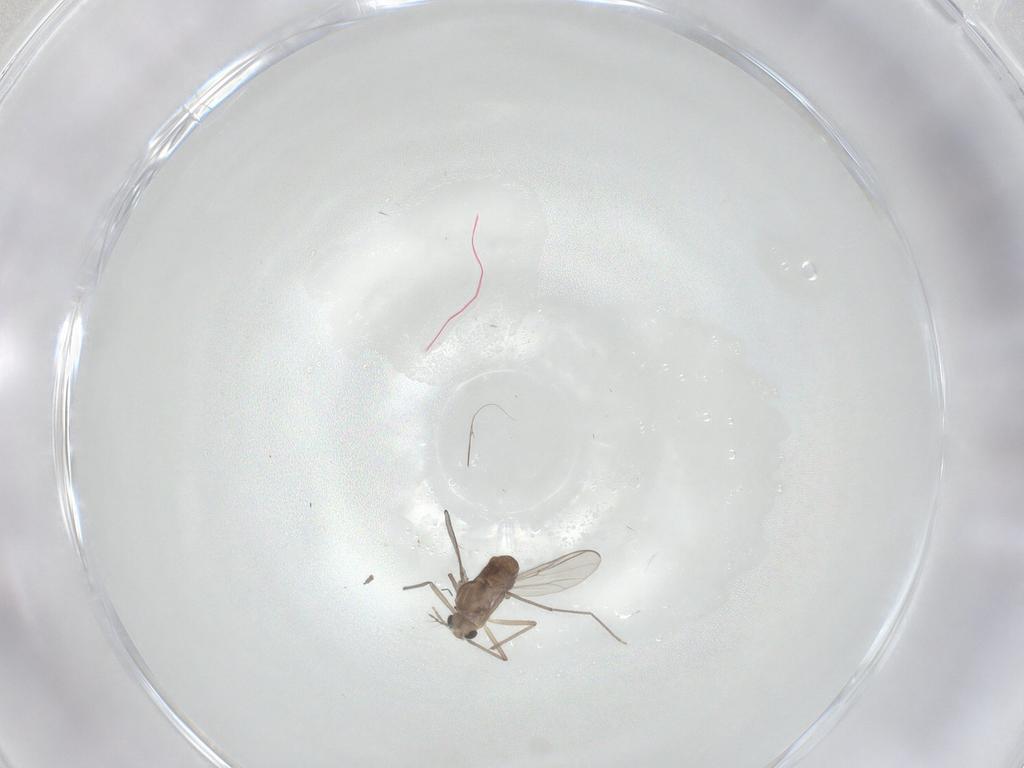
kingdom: Animalia
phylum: Arthropoda
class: Insecta
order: Diptera
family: Chironomidae
